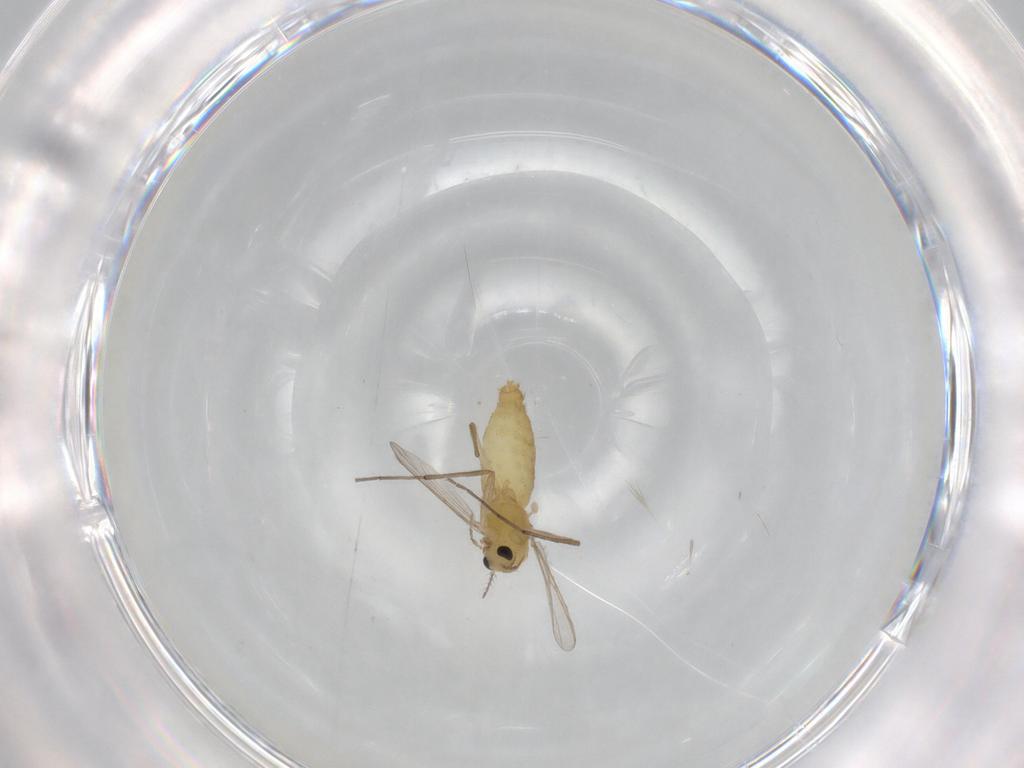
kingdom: Animalia
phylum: Arthropoda
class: Insecta
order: Diptera
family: Chironomidae
